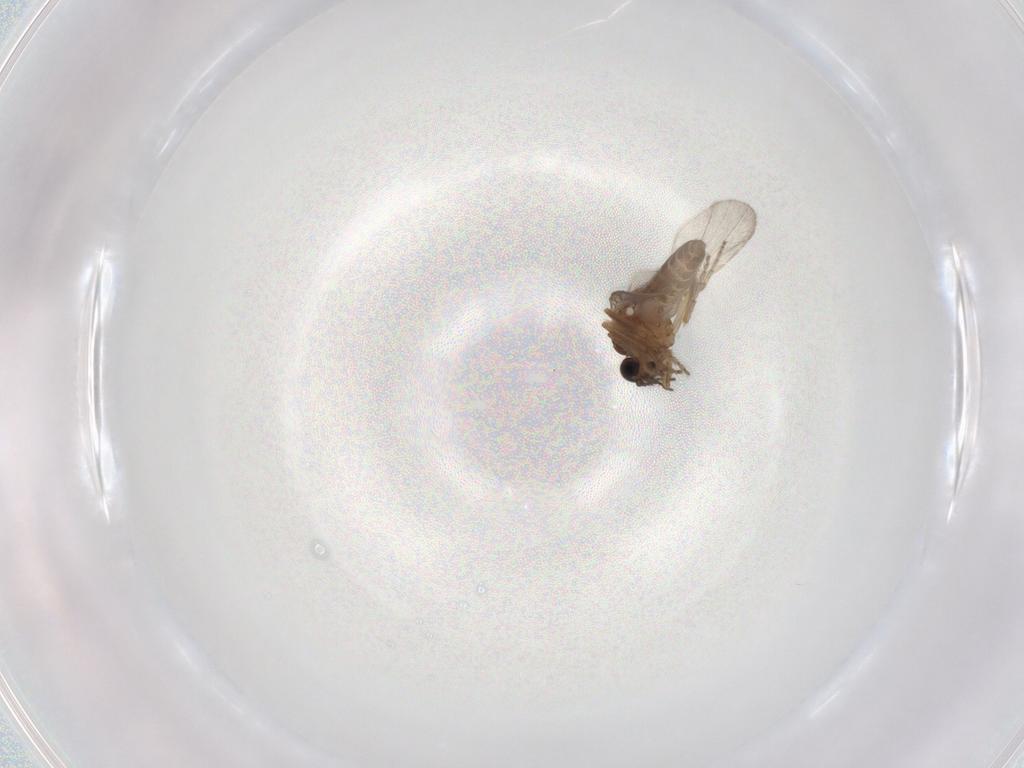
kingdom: Animalia
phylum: Arthropoda
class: Insecta
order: Diptera
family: Ceratopogonidae
